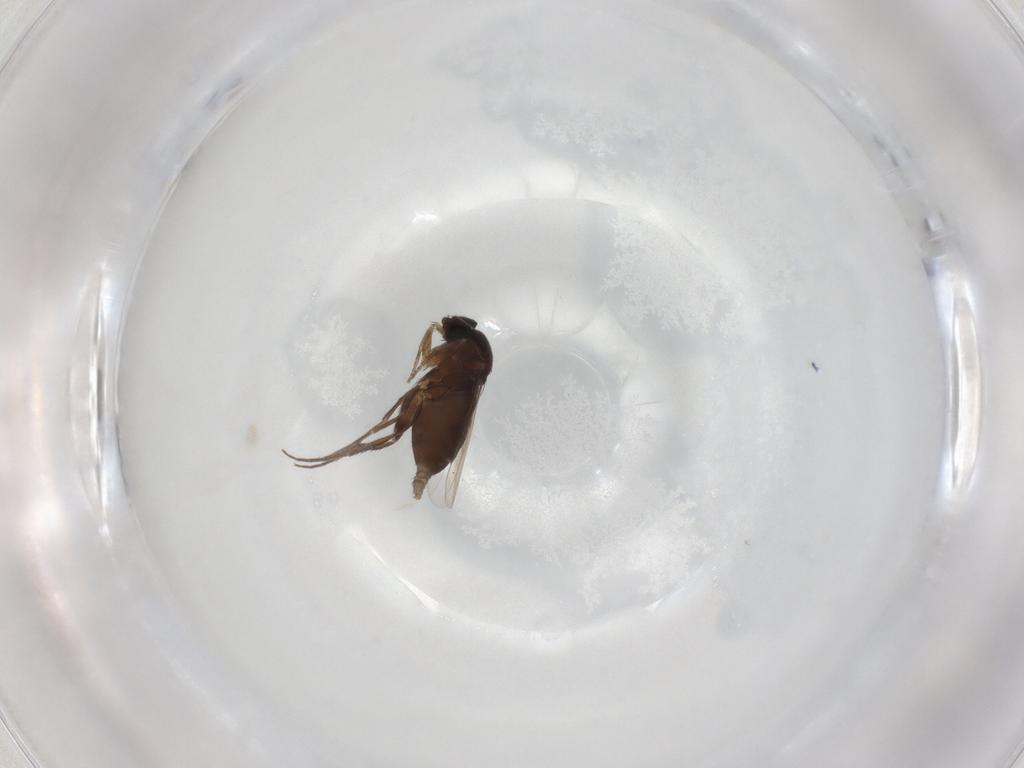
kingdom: Animalia
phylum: Arthropoda
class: Insecta
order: Diptera
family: Phoridae
